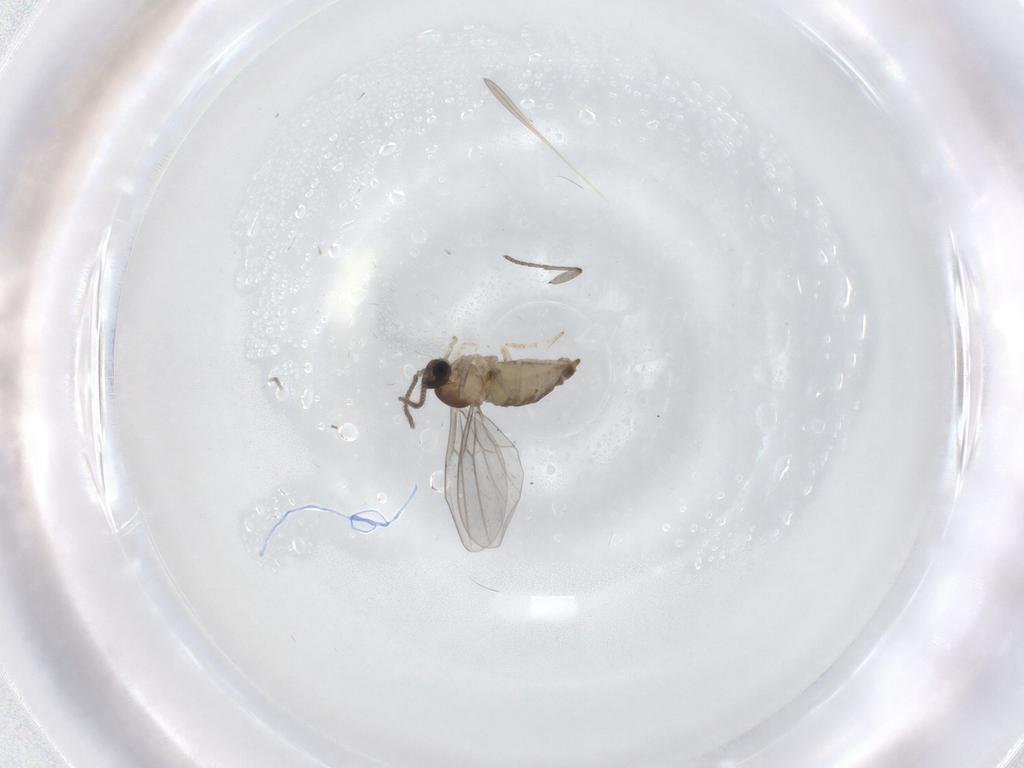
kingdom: Animalia
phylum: Arthropoda
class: Insecta
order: Diptera
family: Cecidomyiidae
